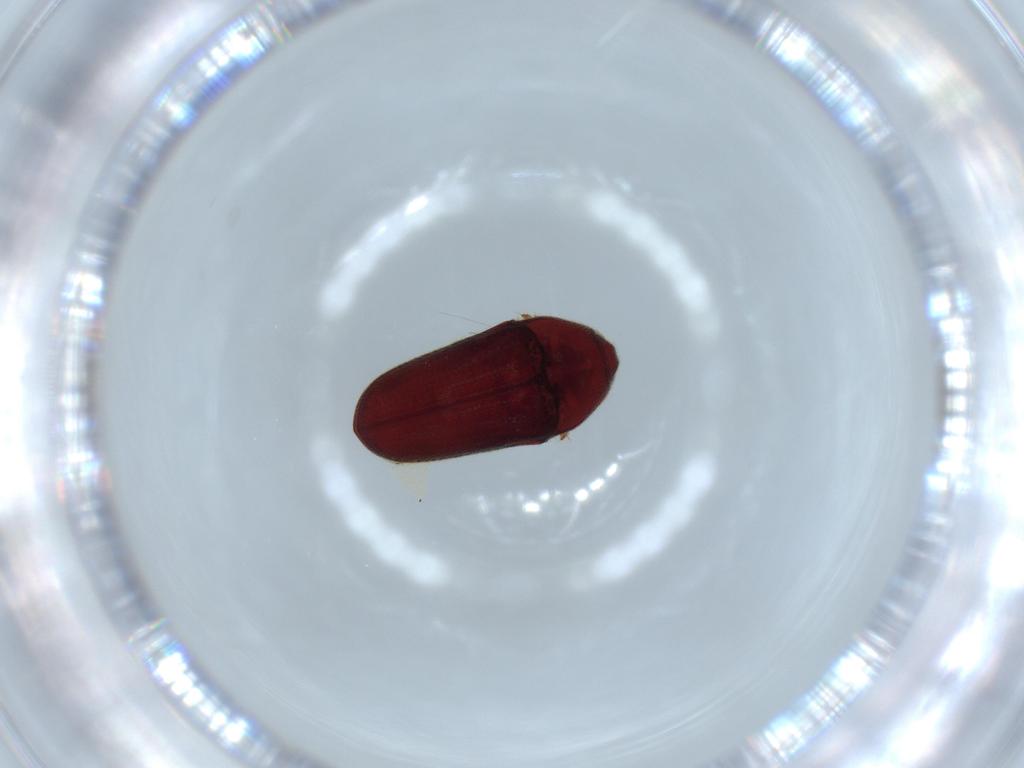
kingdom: Animalia
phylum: Arthropoda
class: Insecta
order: Coleoptera
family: Throscidae
